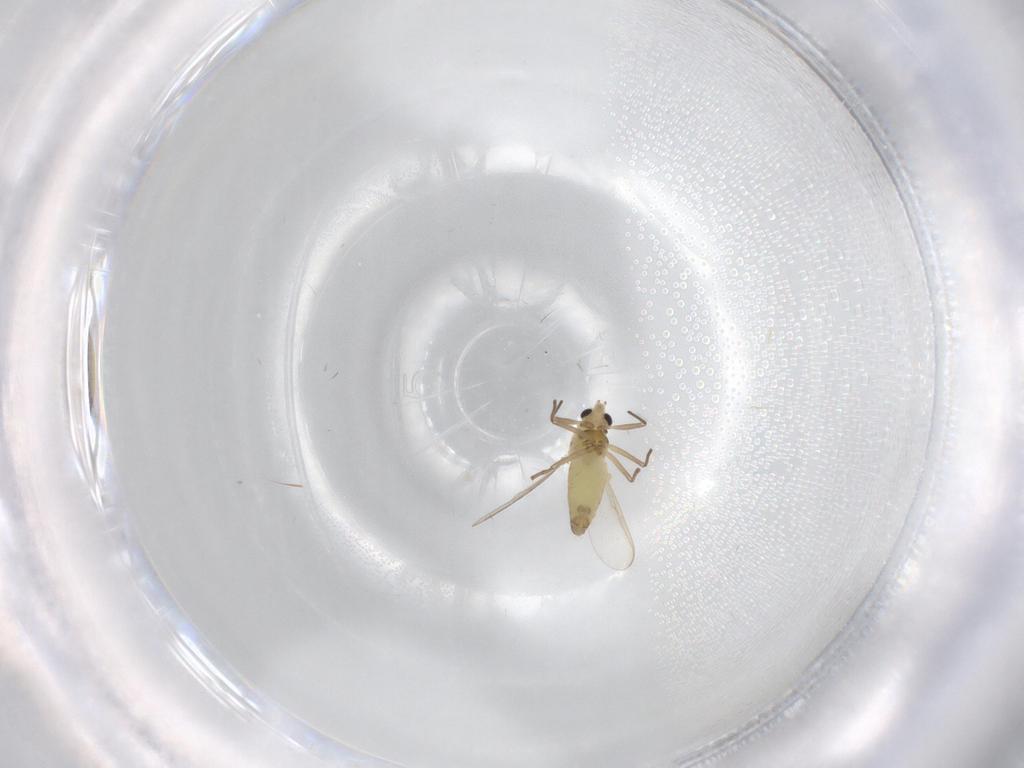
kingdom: Animalia
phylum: Arthropoda
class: Insecta
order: Diptera
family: Chironomidae
